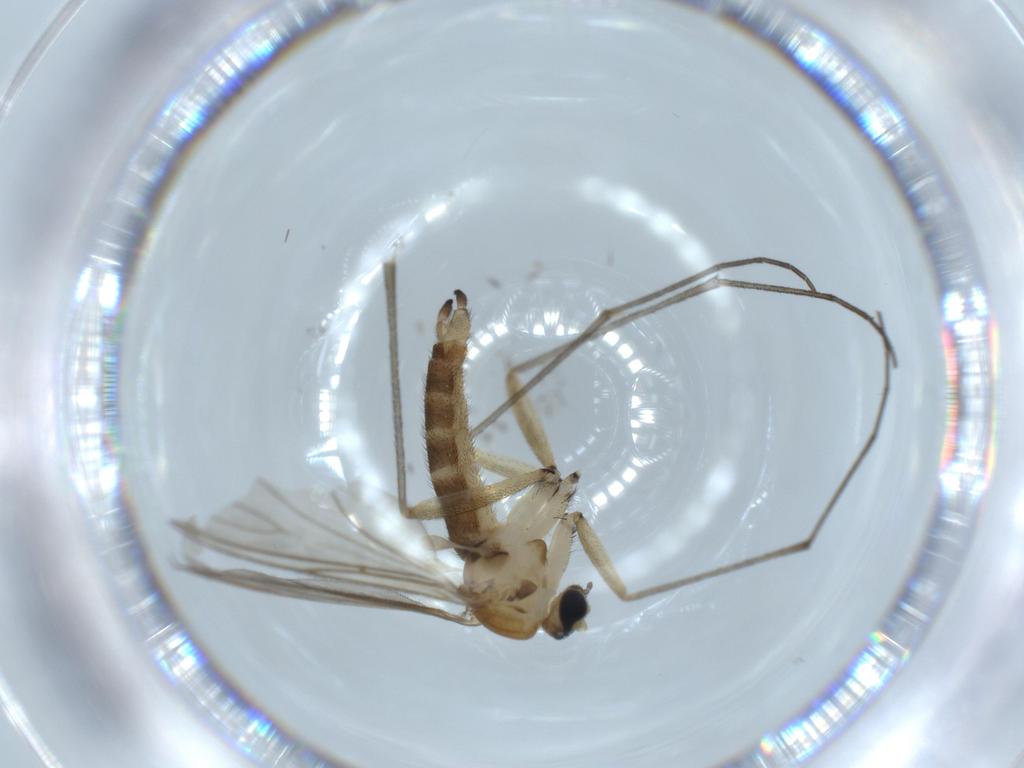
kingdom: Animalia
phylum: Arthropoda
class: Insecta
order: Diptera
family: Sciaridae
